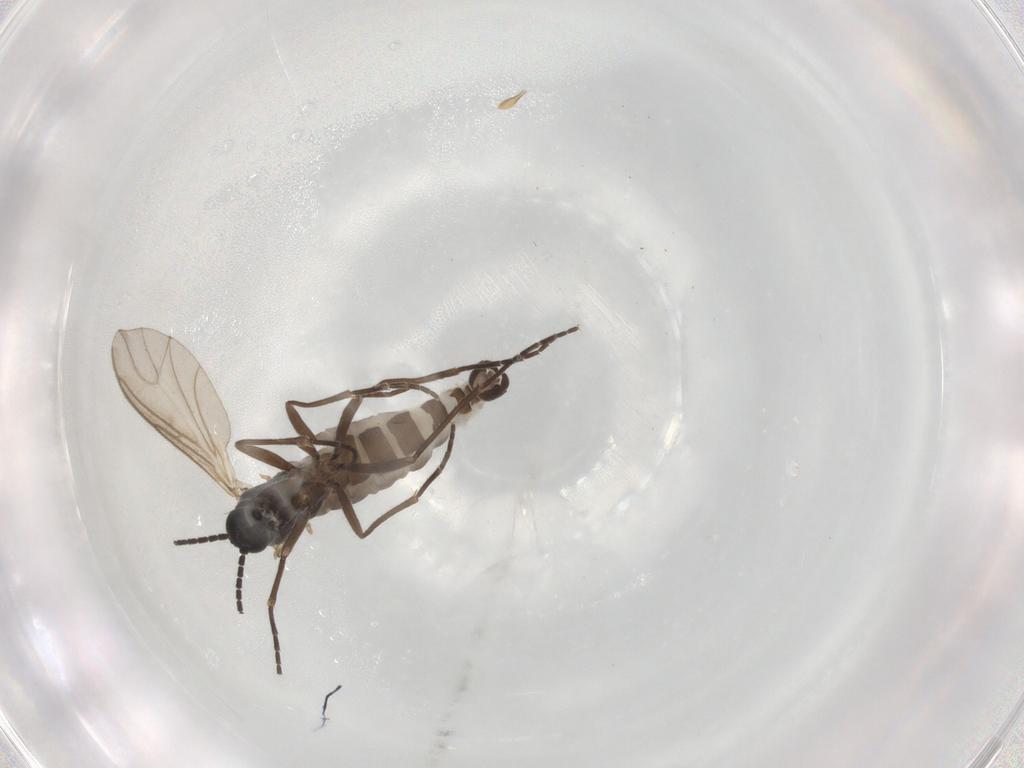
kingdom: Animalia
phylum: Arthropoda
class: Insecta
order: Diptera
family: Sciaridae
